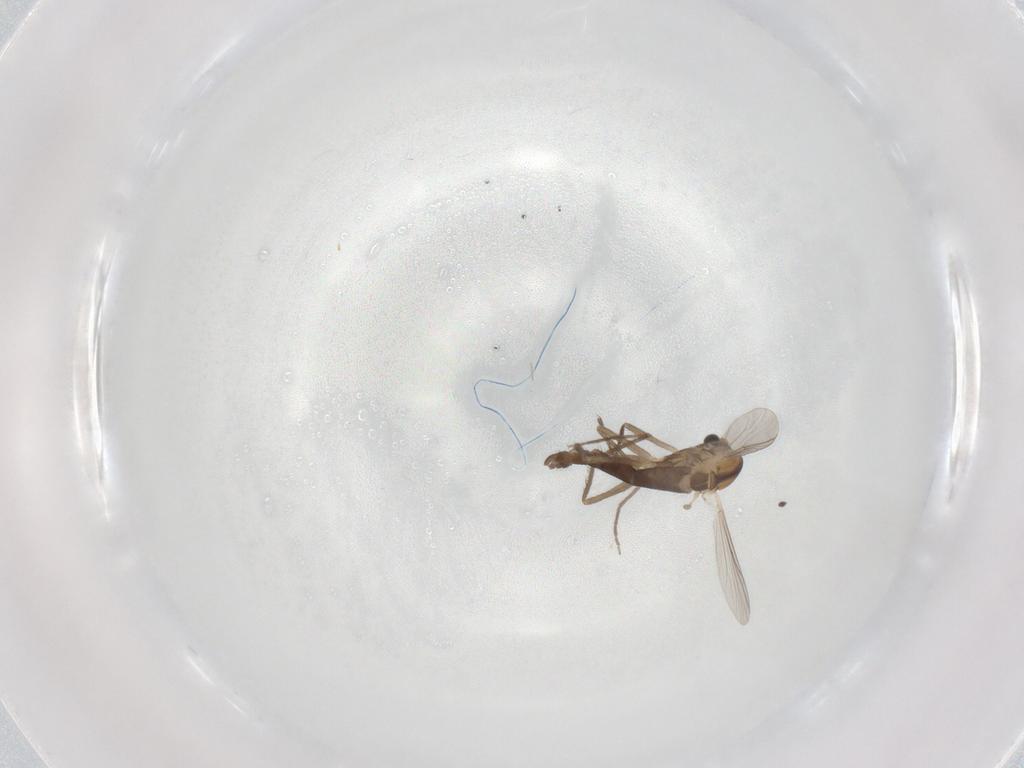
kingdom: Animalia
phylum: Arthropoda
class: Insecta
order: Diptera
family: Chironomidae
